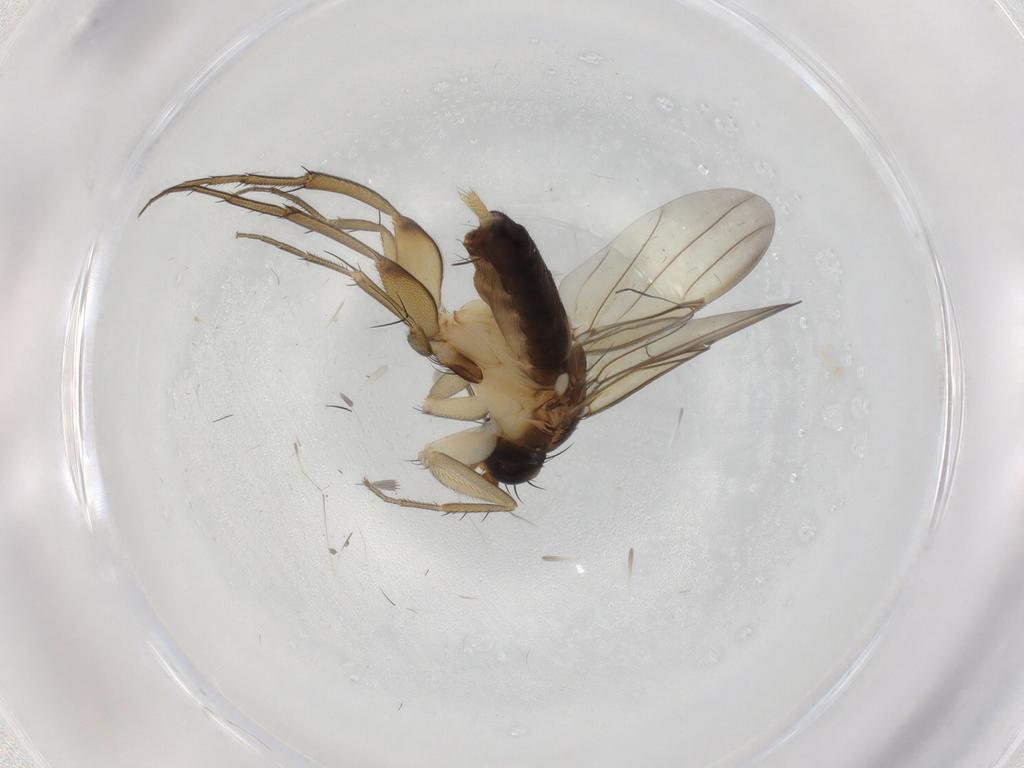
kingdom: Animalia
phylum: Arthropoda
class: Insecta
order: Diptera
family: Phoridae
